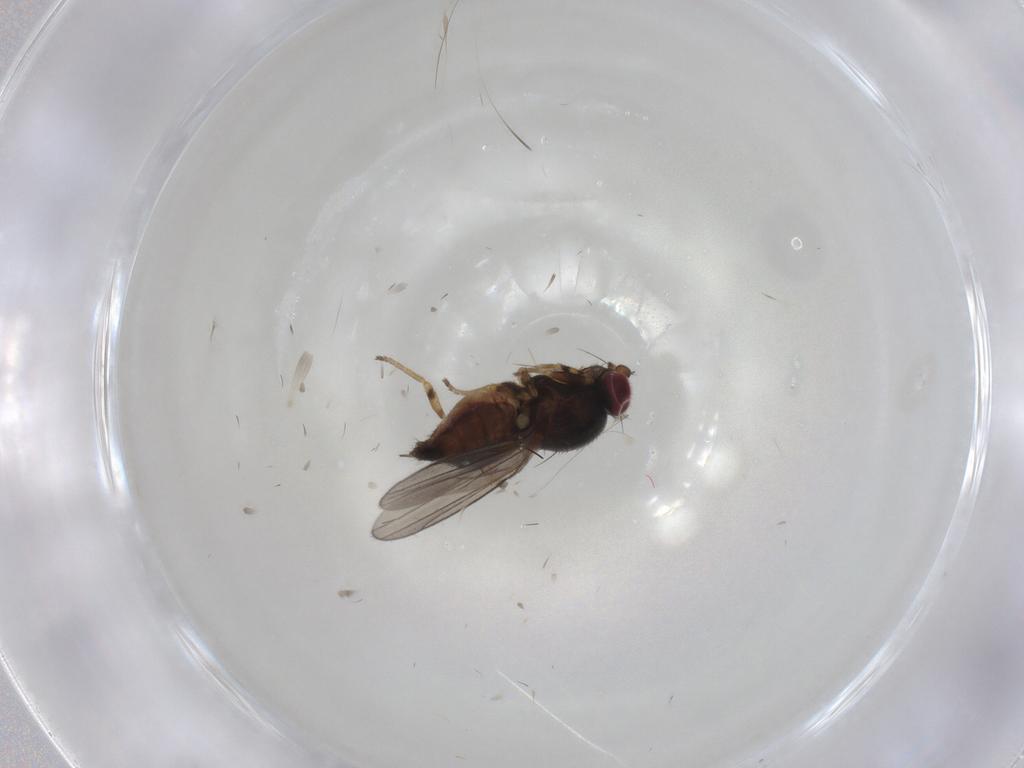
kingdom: Animalia
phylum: Arthropoda
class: Insecta
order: Diptera
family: Chloropidae
